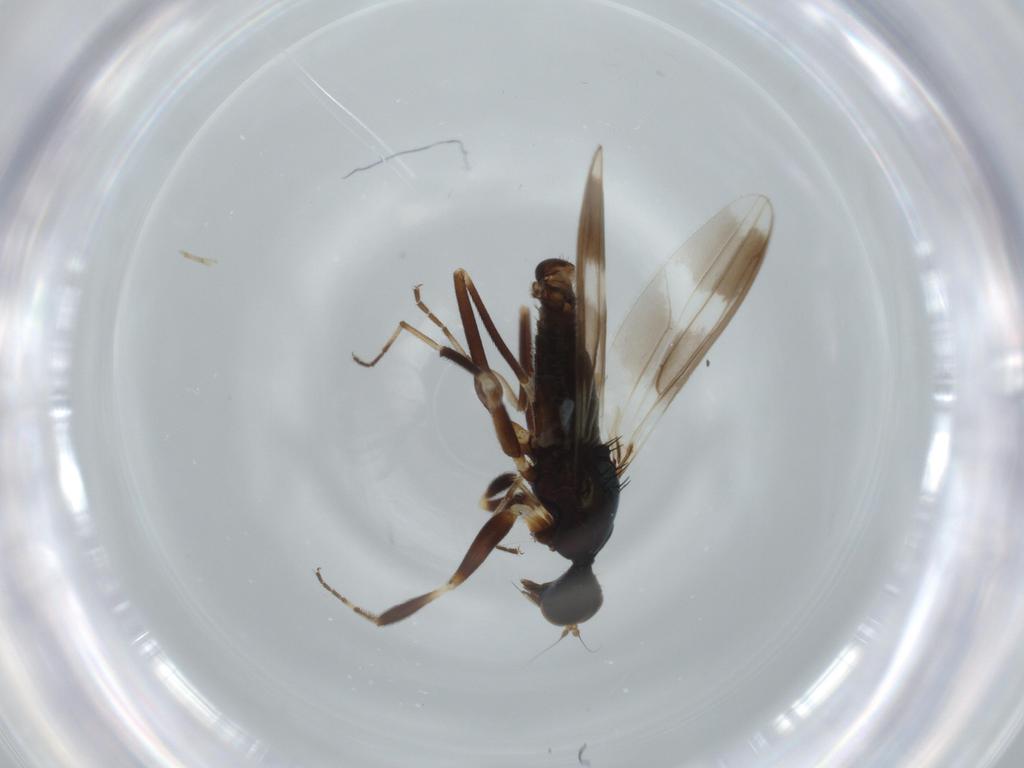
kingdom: Animalia
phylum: Arthropoda
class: Insecta
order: Diptera
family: Hybotidae
